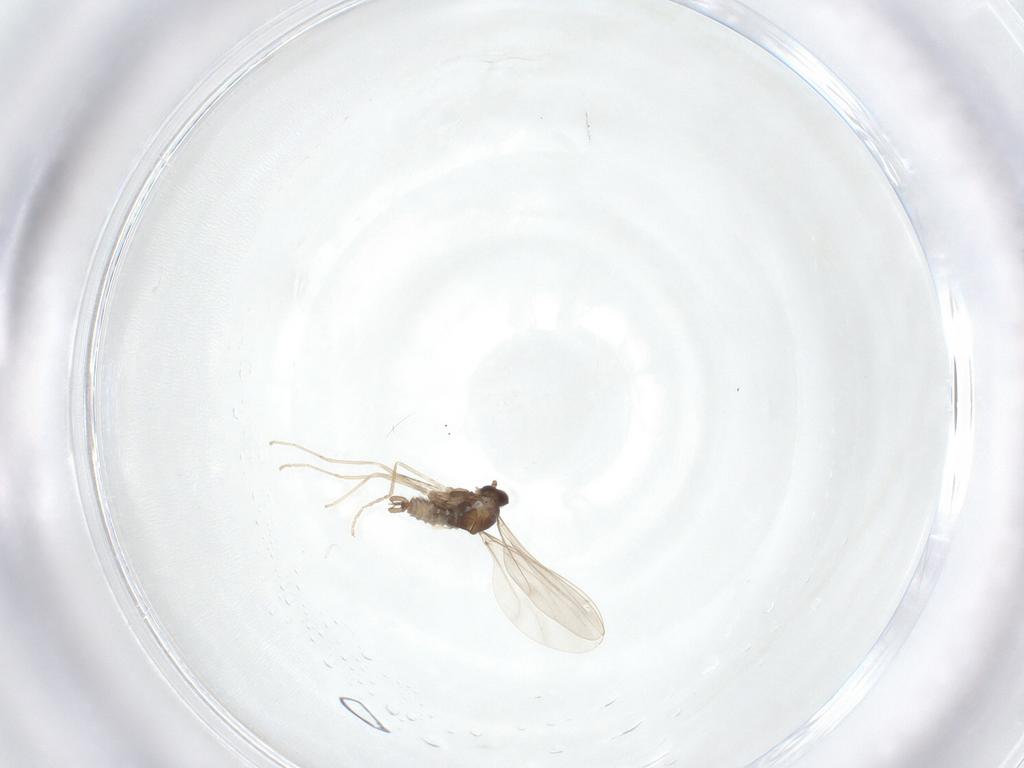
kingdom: Animalia
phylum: Arthropoda
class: Insecta
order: Diptera
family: Cecidomyiidae
